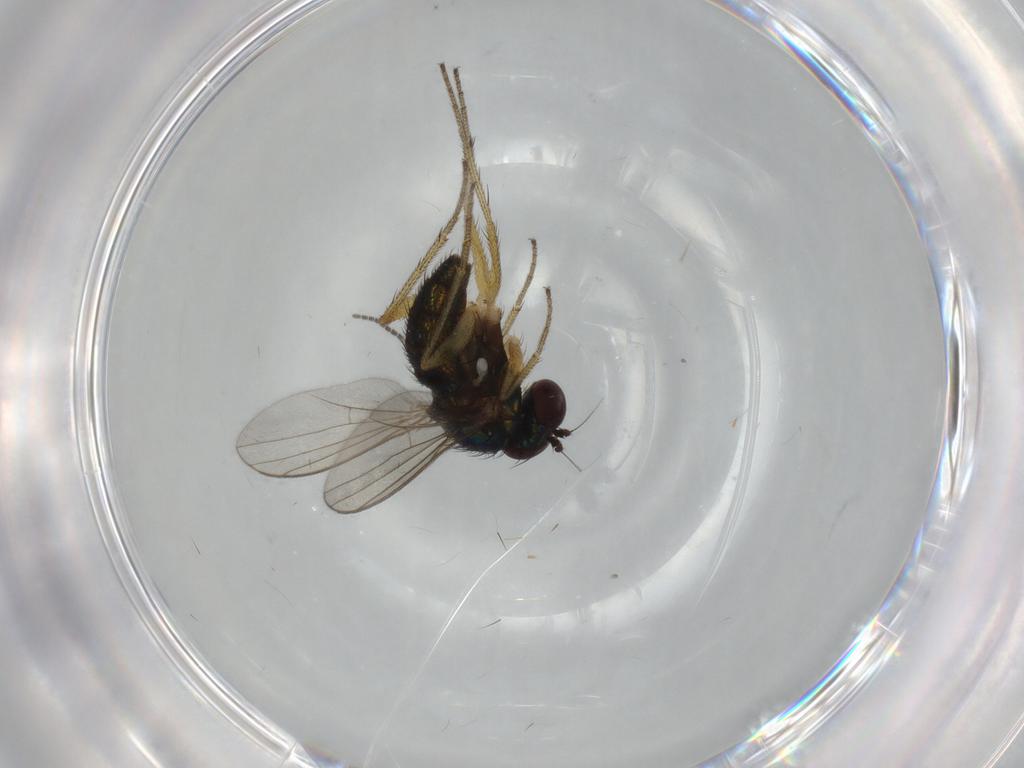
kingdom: Animalia
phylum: Arthropoda
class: Insecta
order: Diptera
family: Sciaridae
